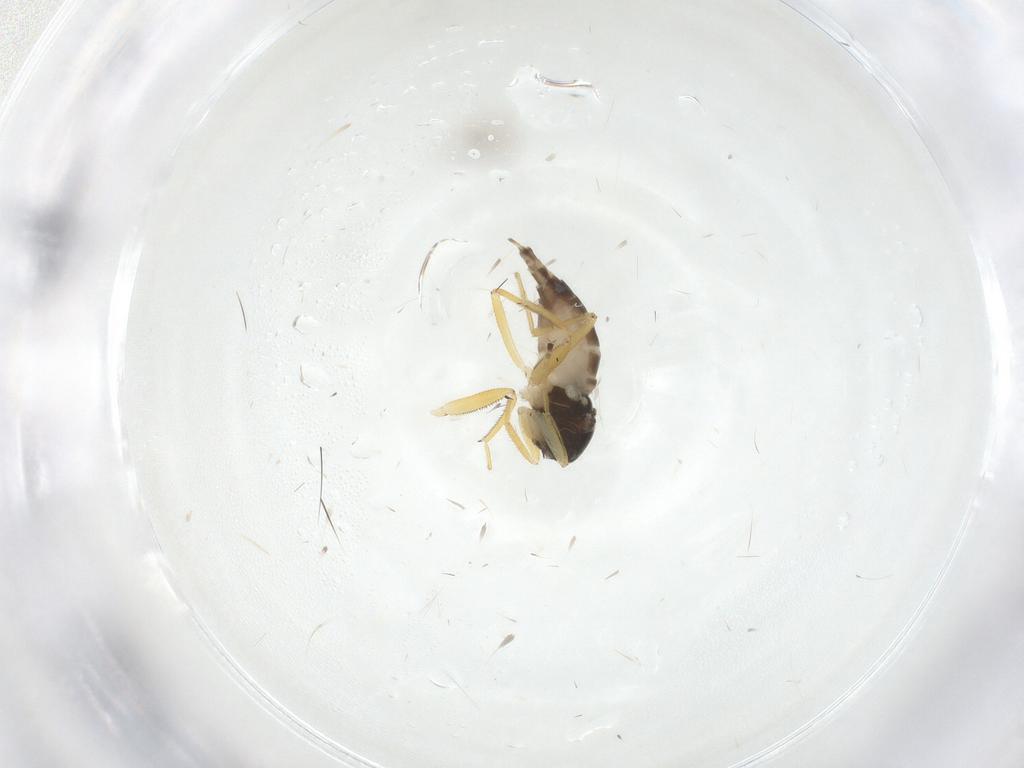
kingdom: Animalia
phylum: Arthropoda
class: Insecta
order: Diptera
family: Hybotidae
